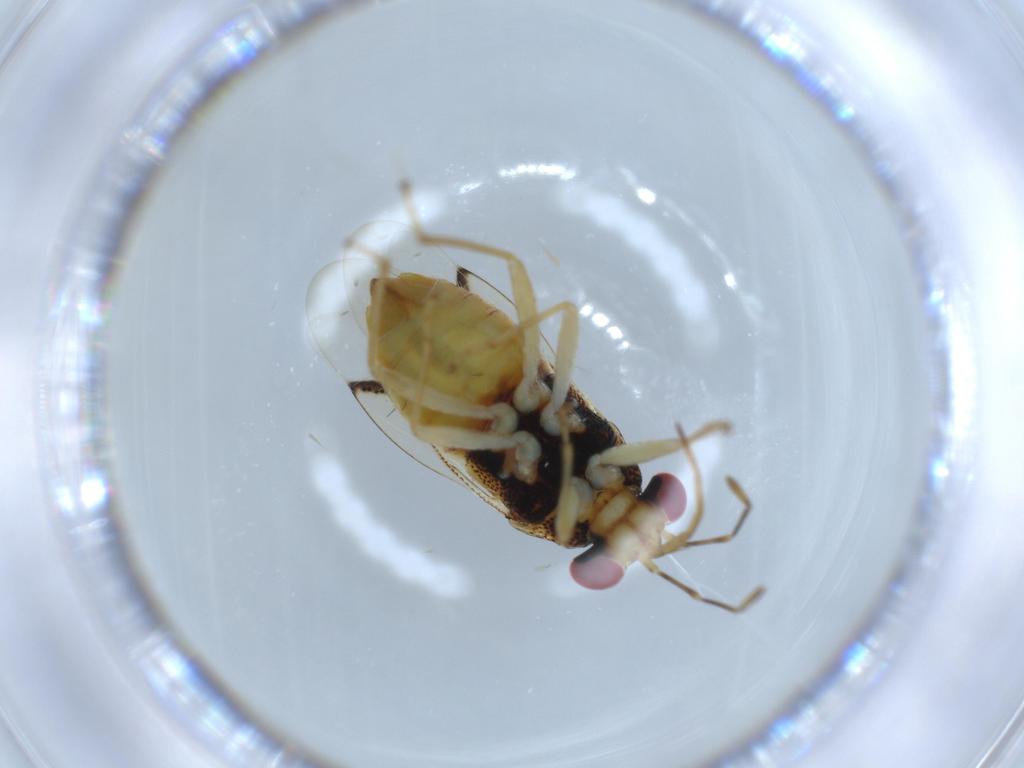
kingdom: Animalia
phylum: Arthropoda
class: Insecta
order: Hemiptera
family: Geocoridae
